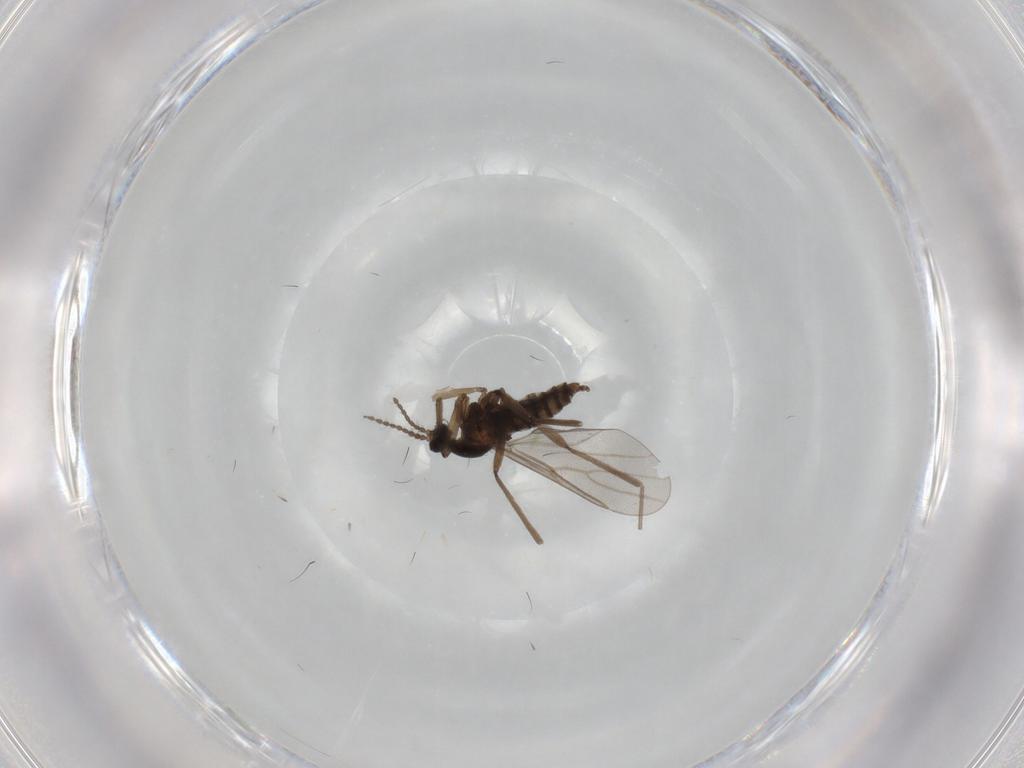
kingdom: Animalia
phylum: Arthropoda
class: Insecta
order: Diptera
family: Cecidomyiidae
